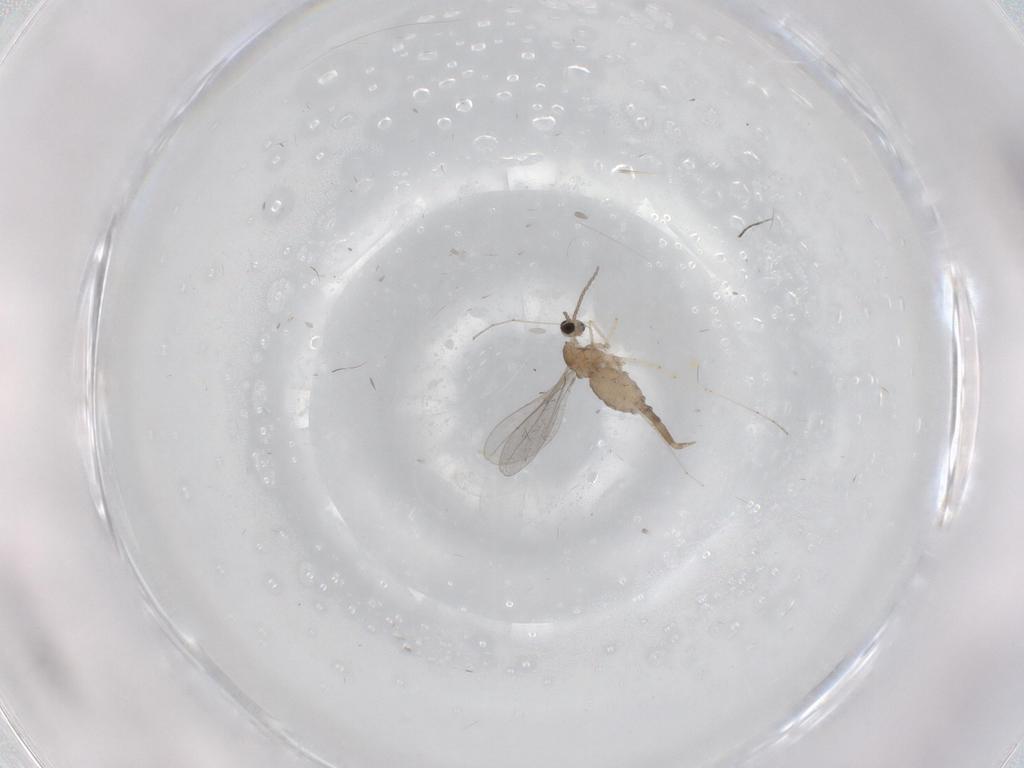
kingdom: Animalia
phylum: Arthropoda
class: Insecta
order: Diptera
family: Cecidomyiidae
